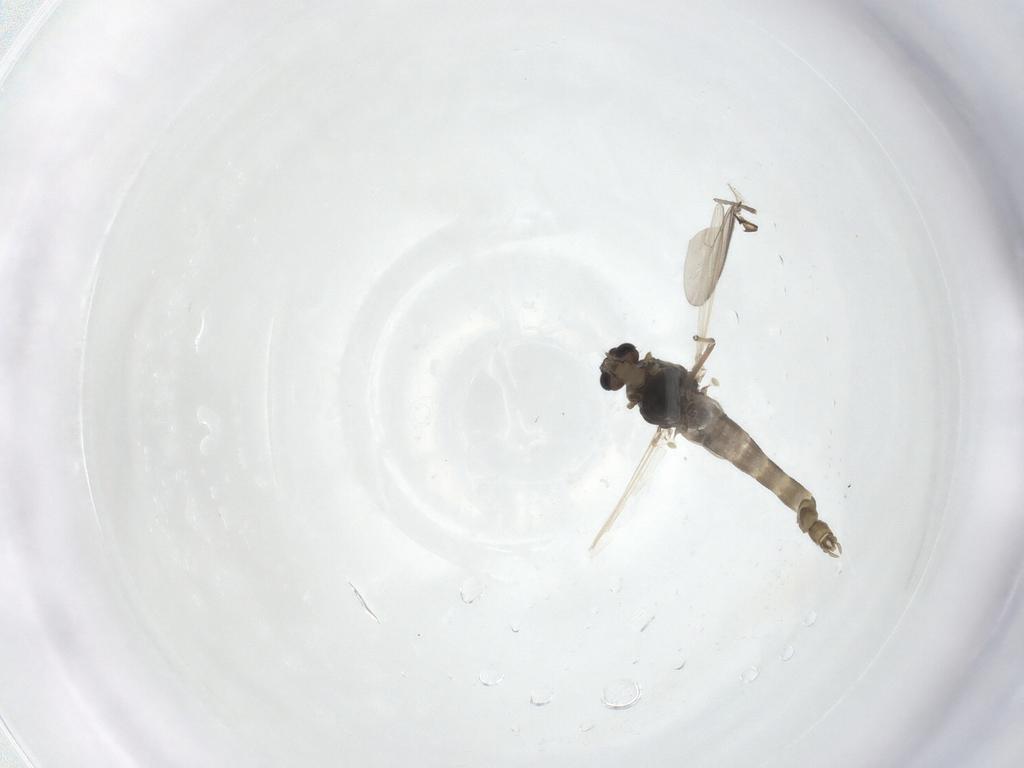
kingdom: Animalia
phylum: Arthropoda
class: Insecta
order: Diptera
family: Chironomidae
